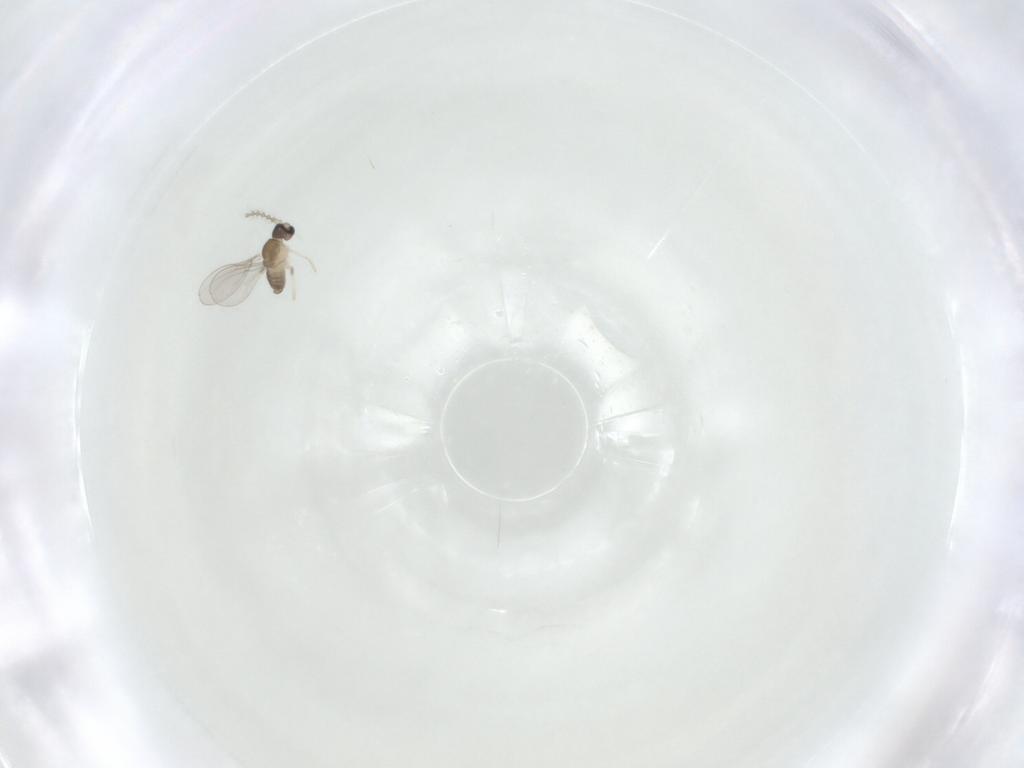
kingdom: Animalia
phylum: Arthropoda
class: Insecta
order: Diptera
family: Cecidomyiidae
